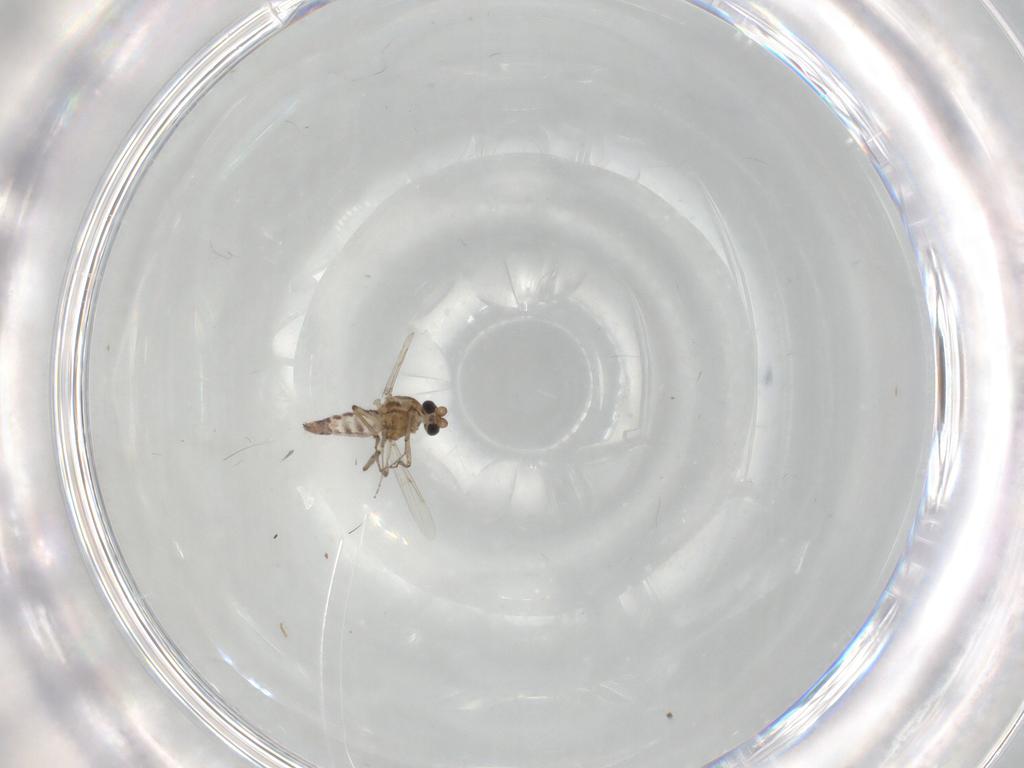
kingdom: Animalia
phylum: Arthropoda
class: Insecta
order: Diptera
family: Ceratopogonidae
